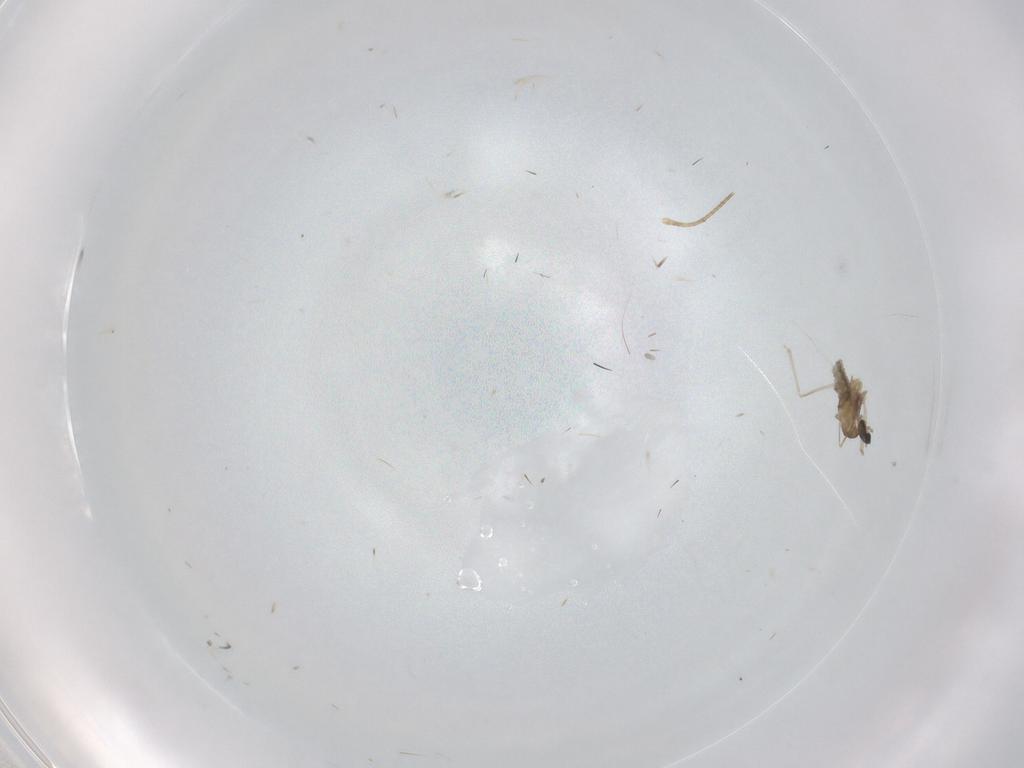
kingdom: Animalia
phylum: Arthropoda
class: Insecta
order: Diptera
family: Cecidomyiidae
